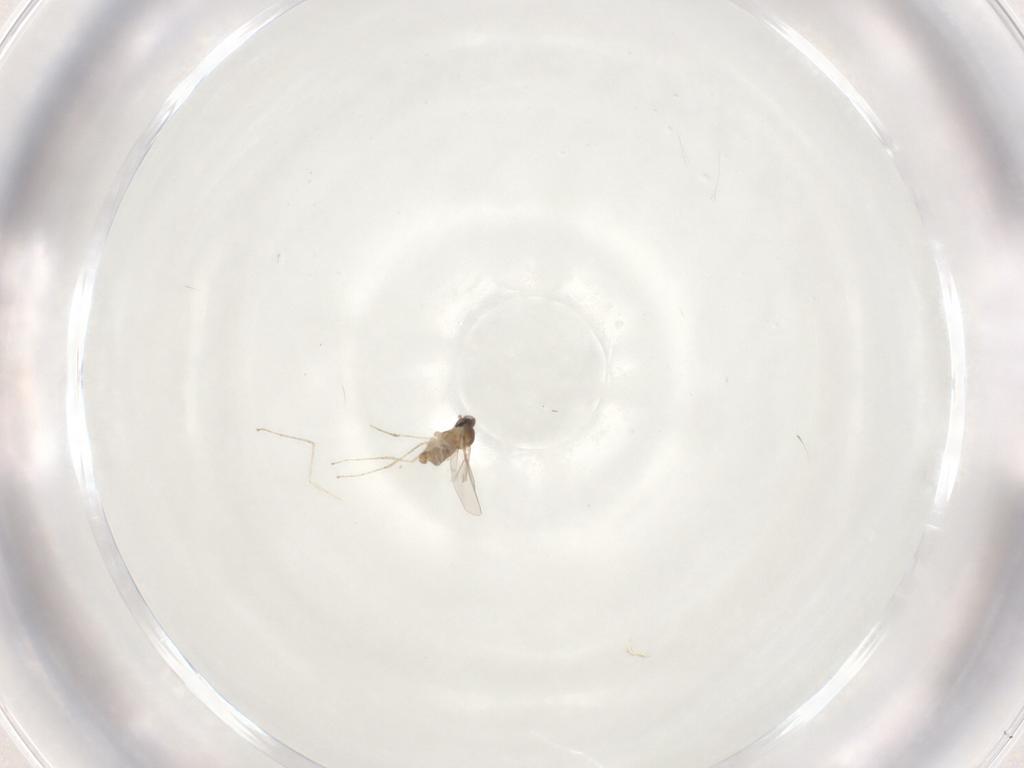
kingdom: Animalia
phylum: Arthropoda
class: Insecta
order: Diptera
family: Cecidomyiidae
